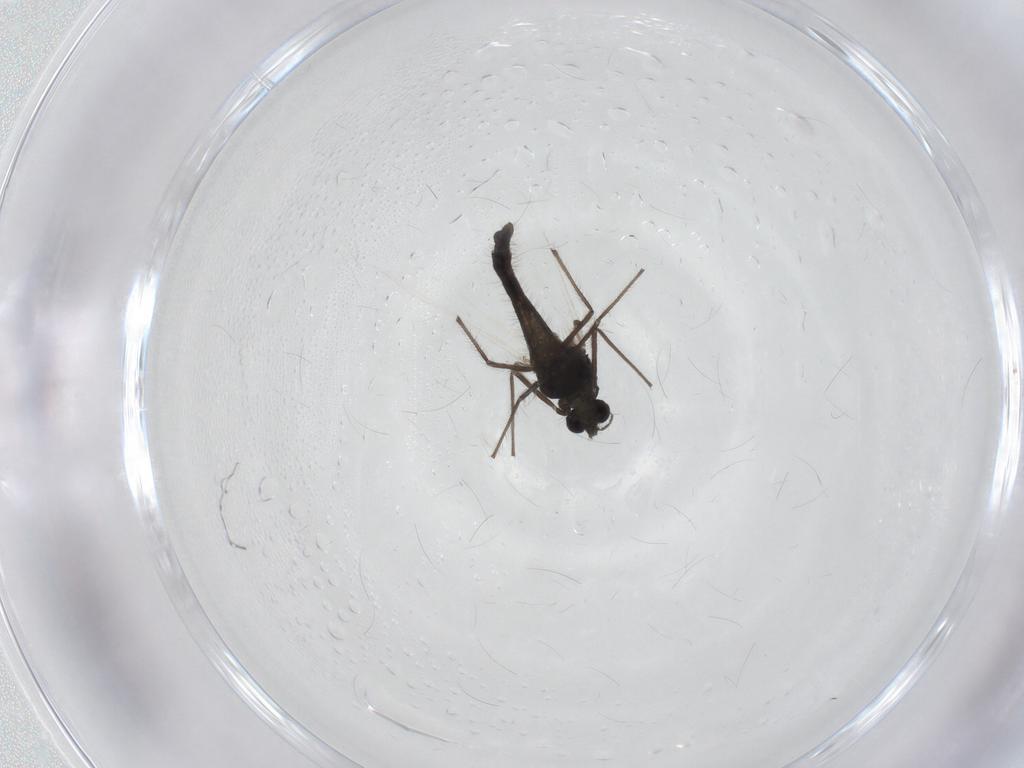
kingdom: Animalia
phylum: Arthropoda
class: Insecta
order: Diptera
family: Chironomidae
